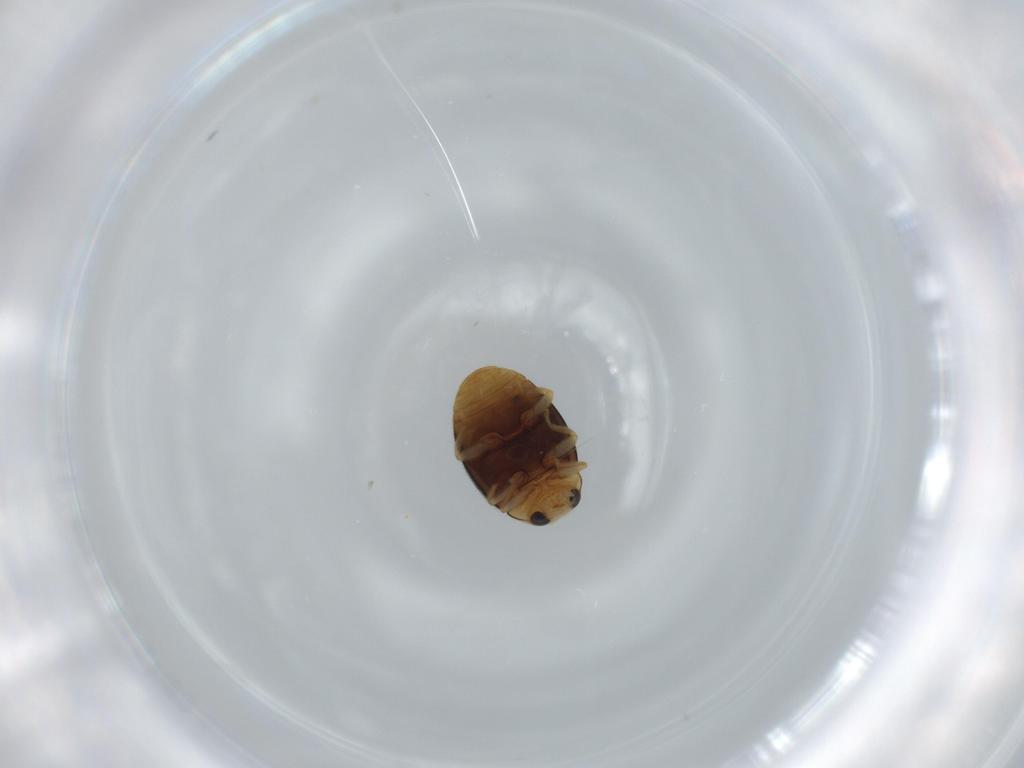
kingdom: Animalia
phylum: Arthropoda
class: Insecta
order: Coleoptera
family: Coccinellidae
